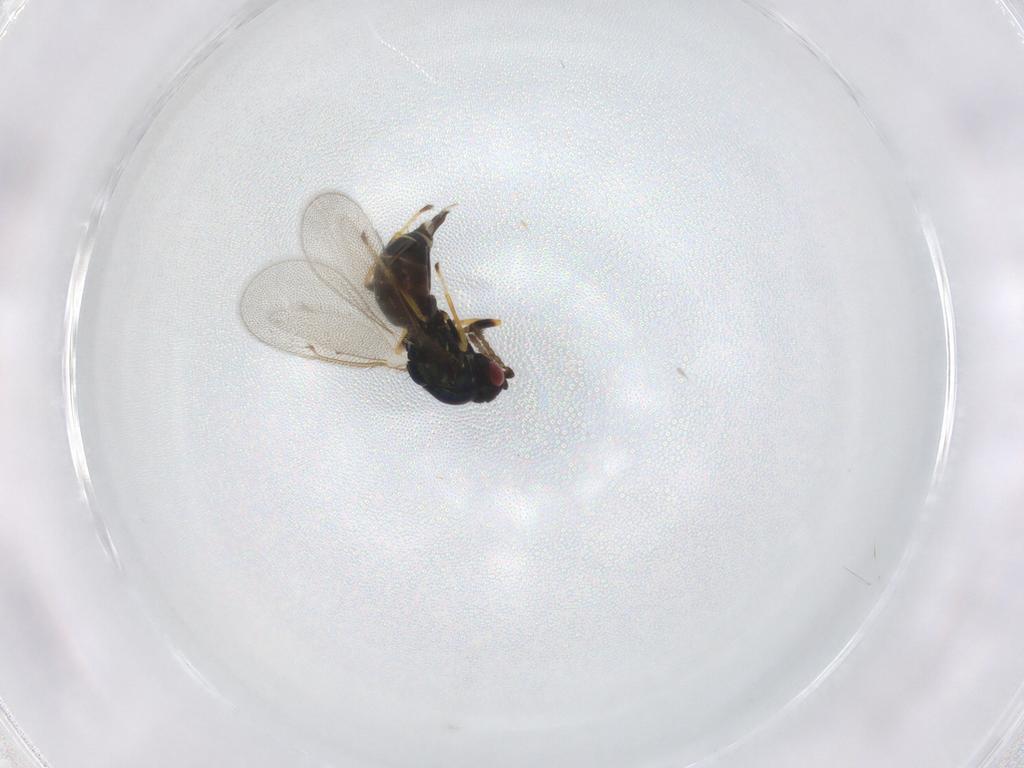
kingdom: Animalia
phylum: Arthropoda
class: Insecta
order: Hymenoptera
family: Eulophidae
